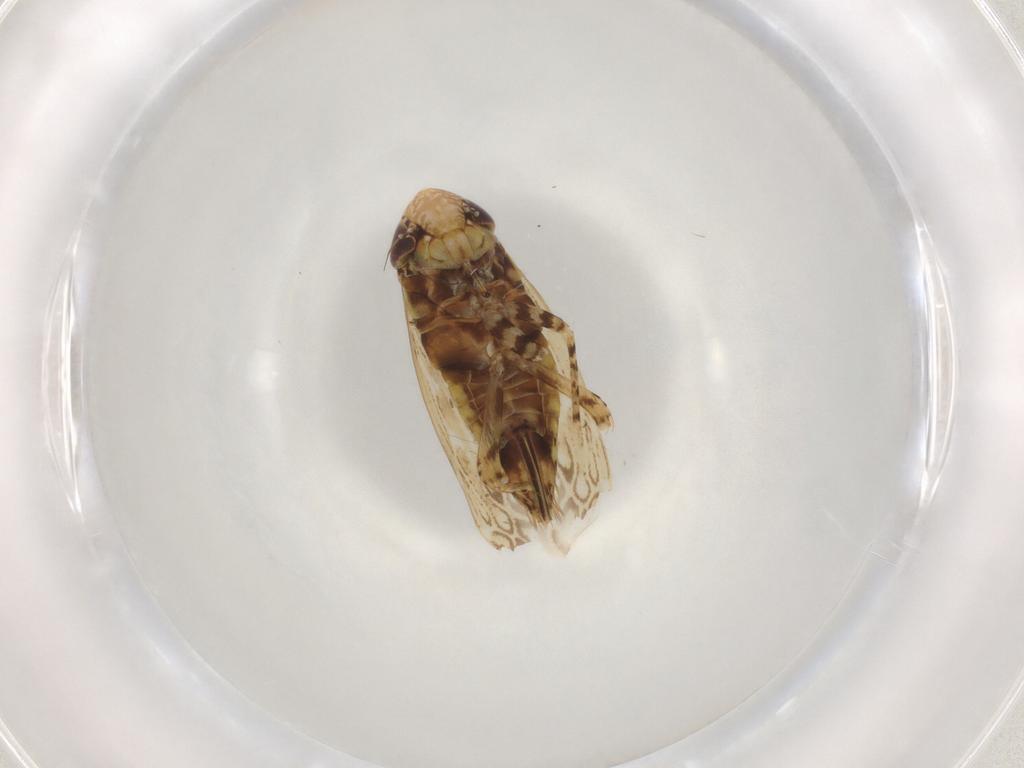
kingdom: Animalia
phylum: Arthropoda
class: Insecta
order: Hemiptera
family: Cicadellidae
